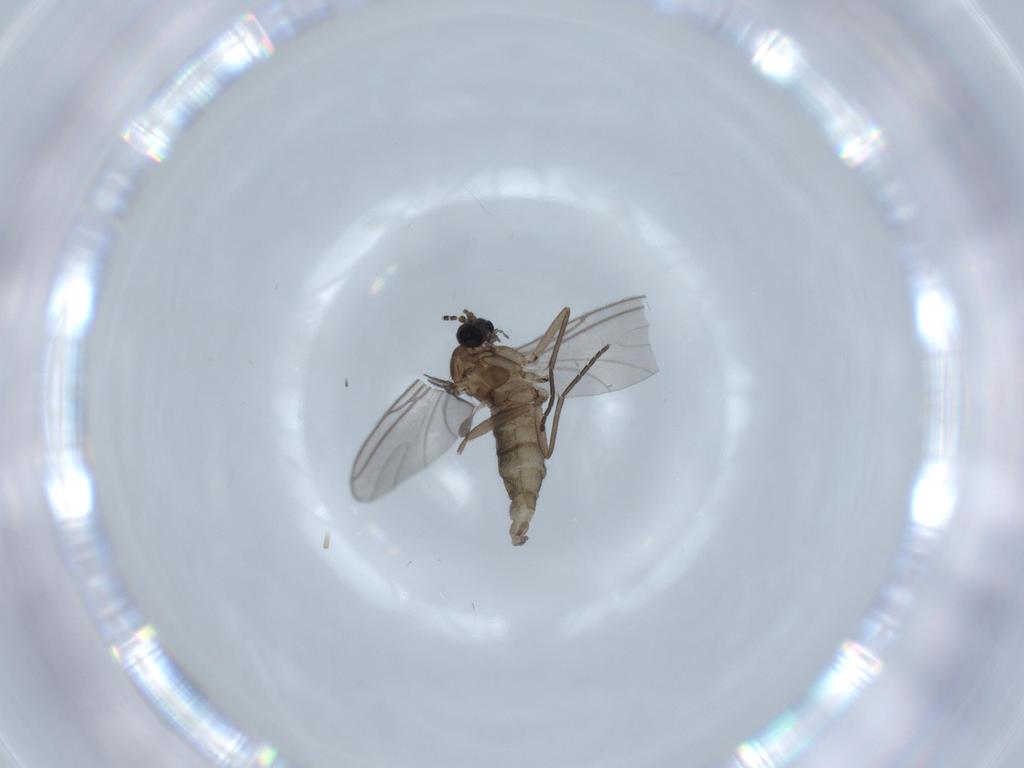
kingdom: Animalia
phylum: Arthropoda
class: Insecta
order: Diptera
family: Sciaridae
